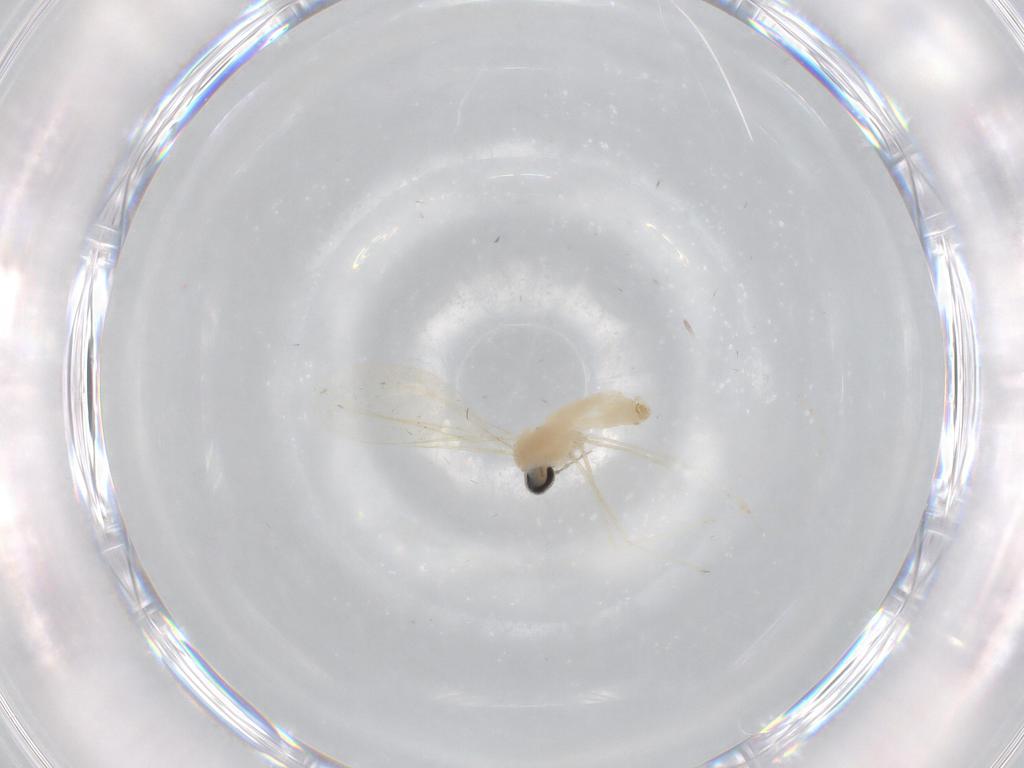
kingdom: Animalia
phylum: Arthropoda
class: Insecta
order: Diptera
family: Cecidomyiidae
